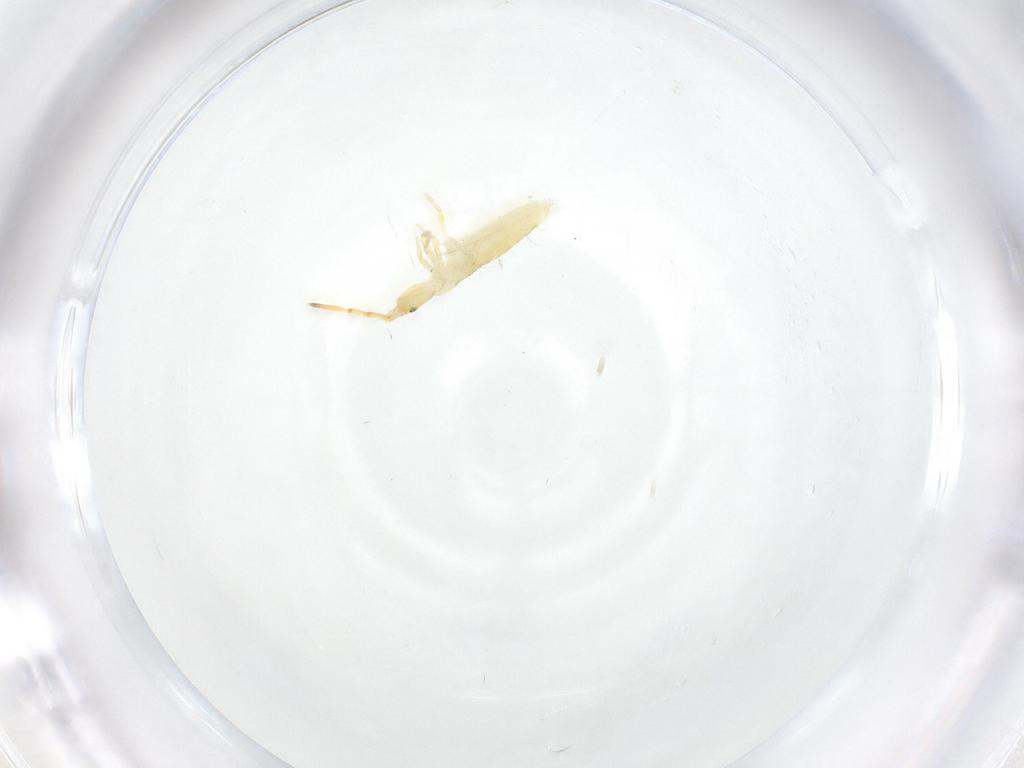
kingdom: Animalia
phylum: Arthropoda
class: Collembola
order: Entomobryomorpha
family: Entomobryidae
